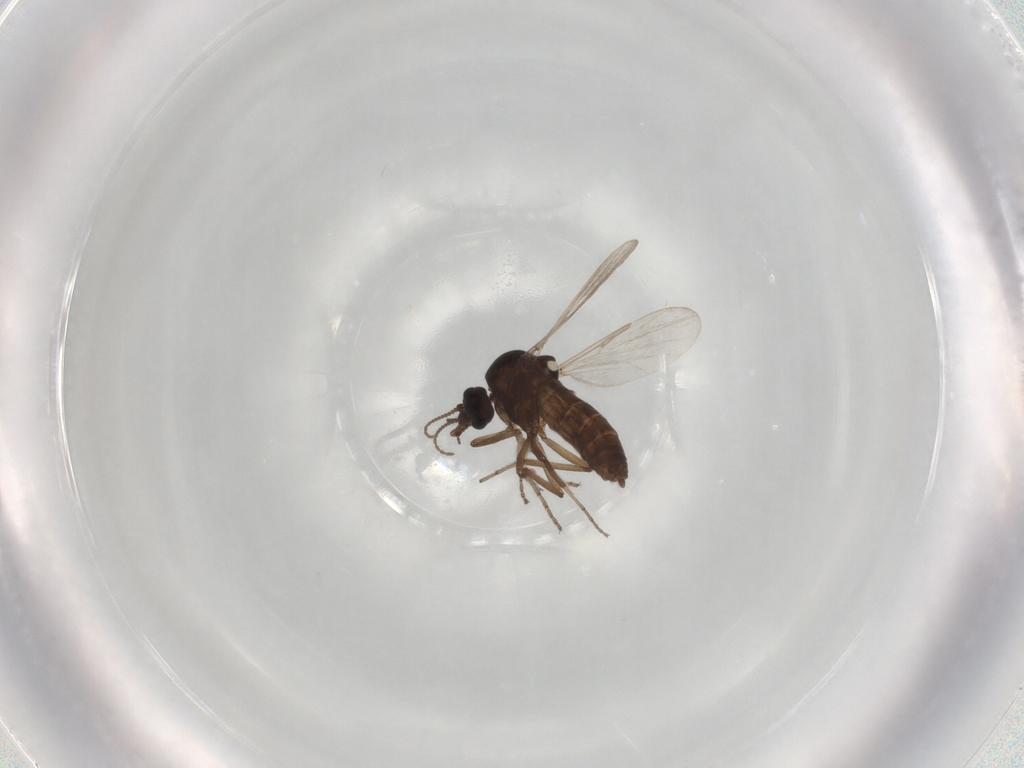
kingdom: Animalia
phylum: Arthropoda
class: Insecta
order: Diptera
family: Ceratopogonidae
